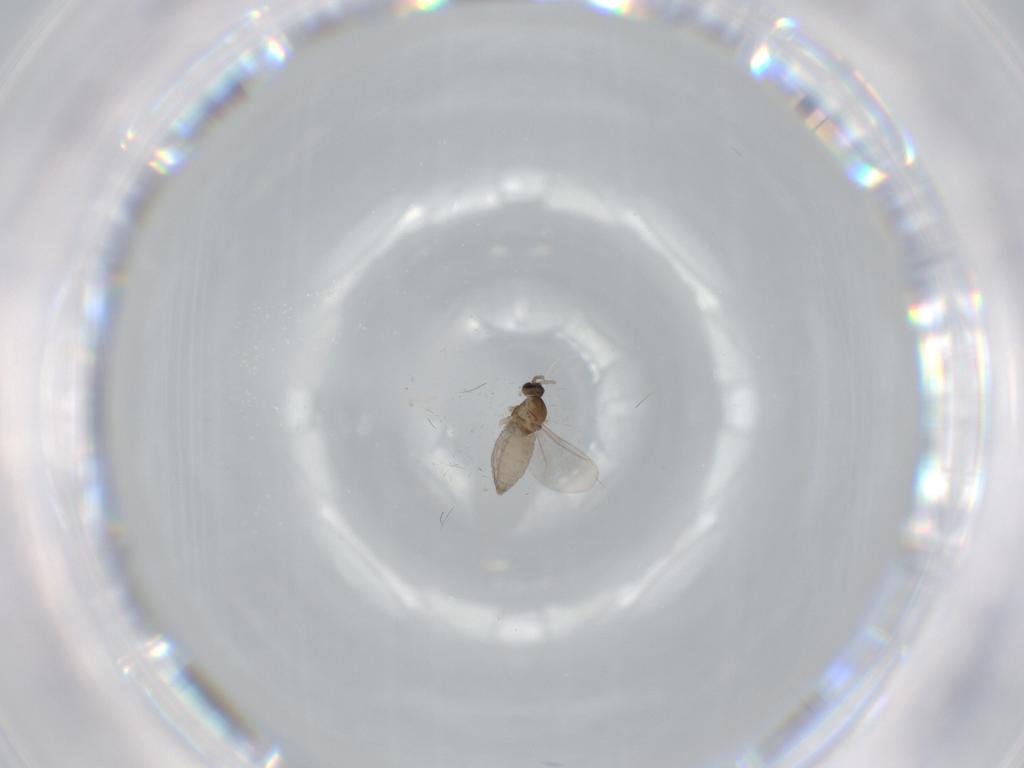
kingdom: Animalia
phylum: Arthropoda
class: Insecta
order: Diptera
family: Cecidomyiidae
